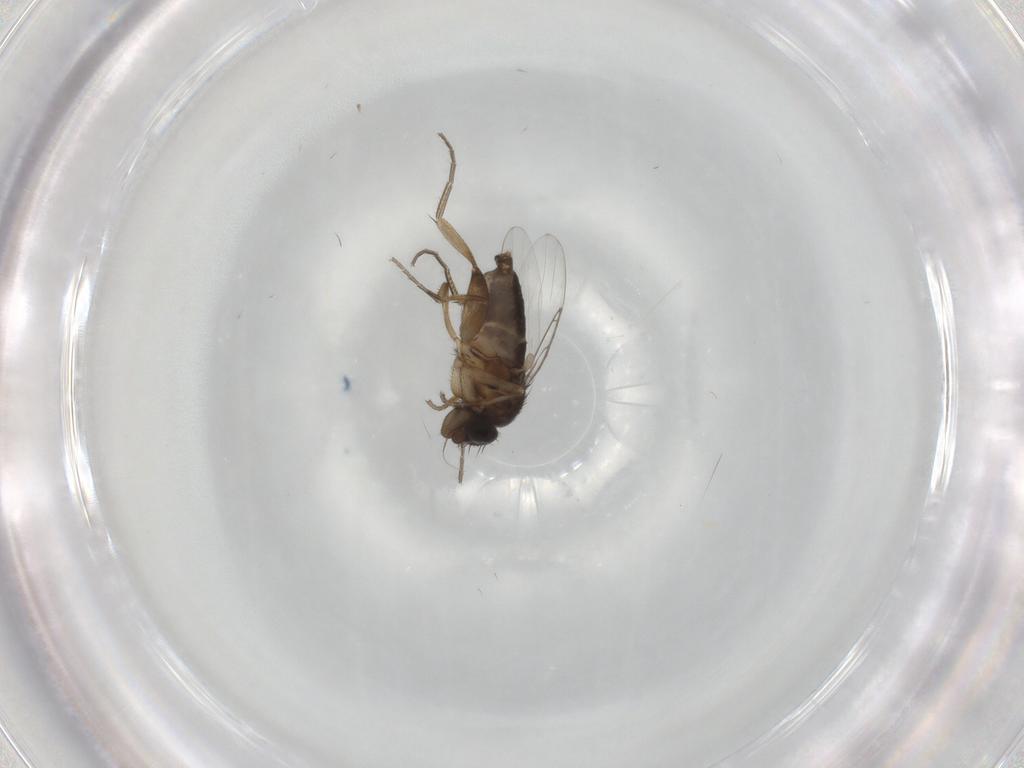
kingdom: Animalia
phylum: Arthropoda
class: Insecta
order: Diptera
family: Phoridae
